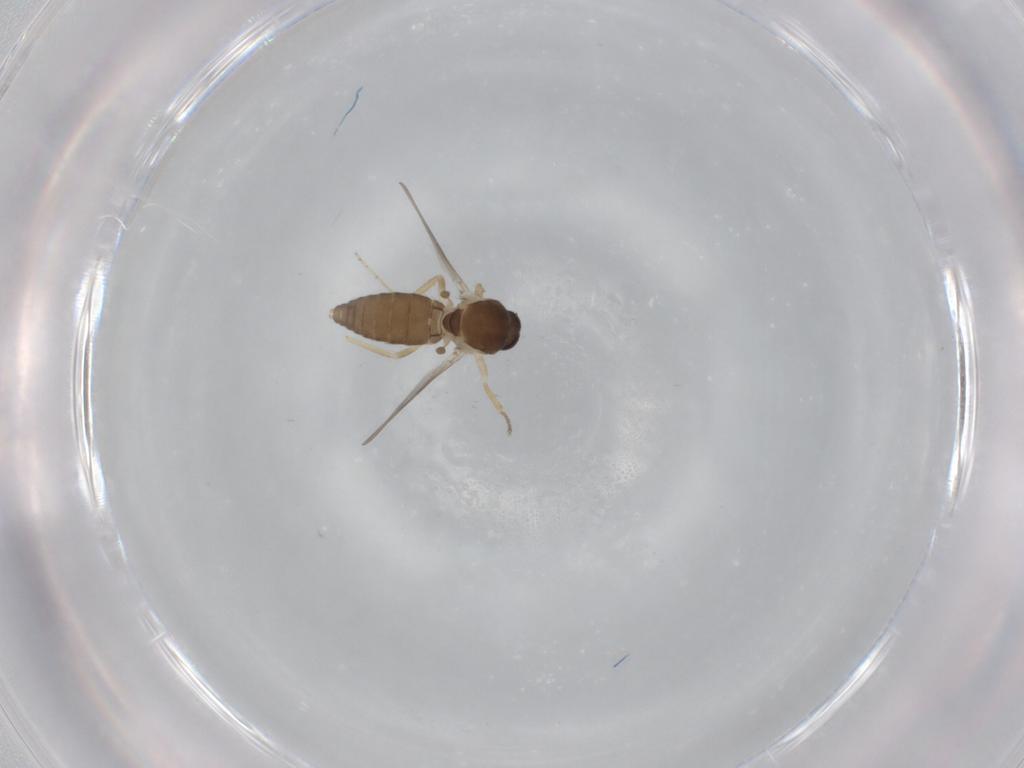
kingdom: Animalia
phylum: Arthropoda
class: Insecta
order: Diptera
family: Ceratopogonidae
